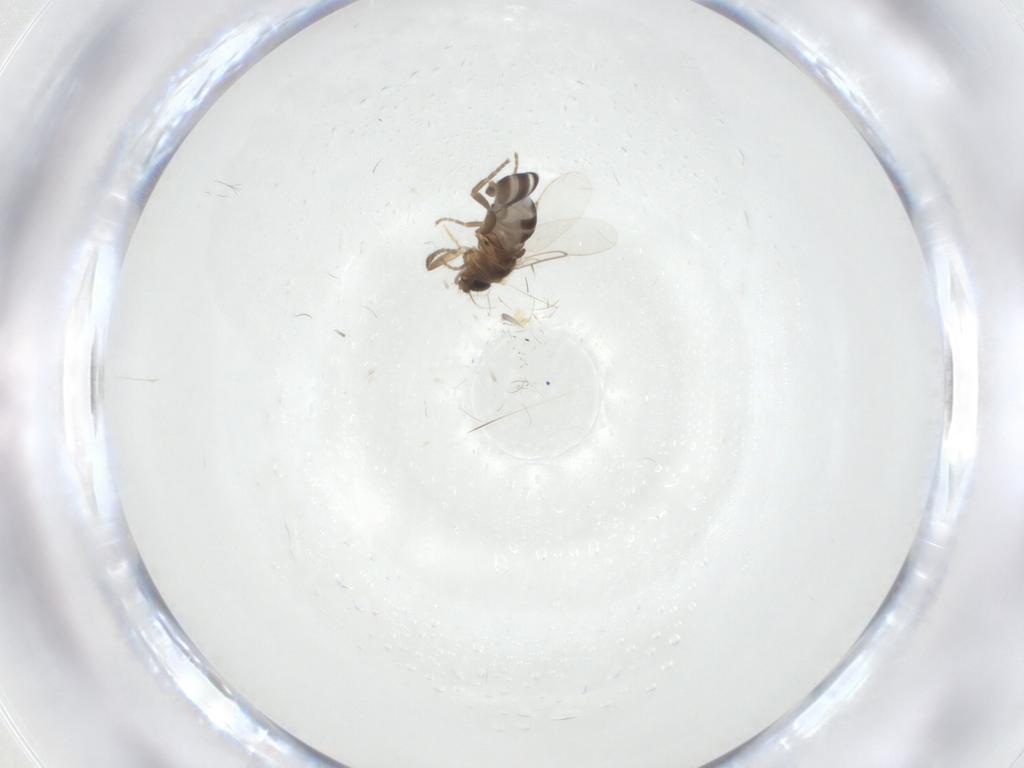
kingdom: Animalia
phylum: Arthropoda
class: Insecta
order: Diptera
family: Phoridae
